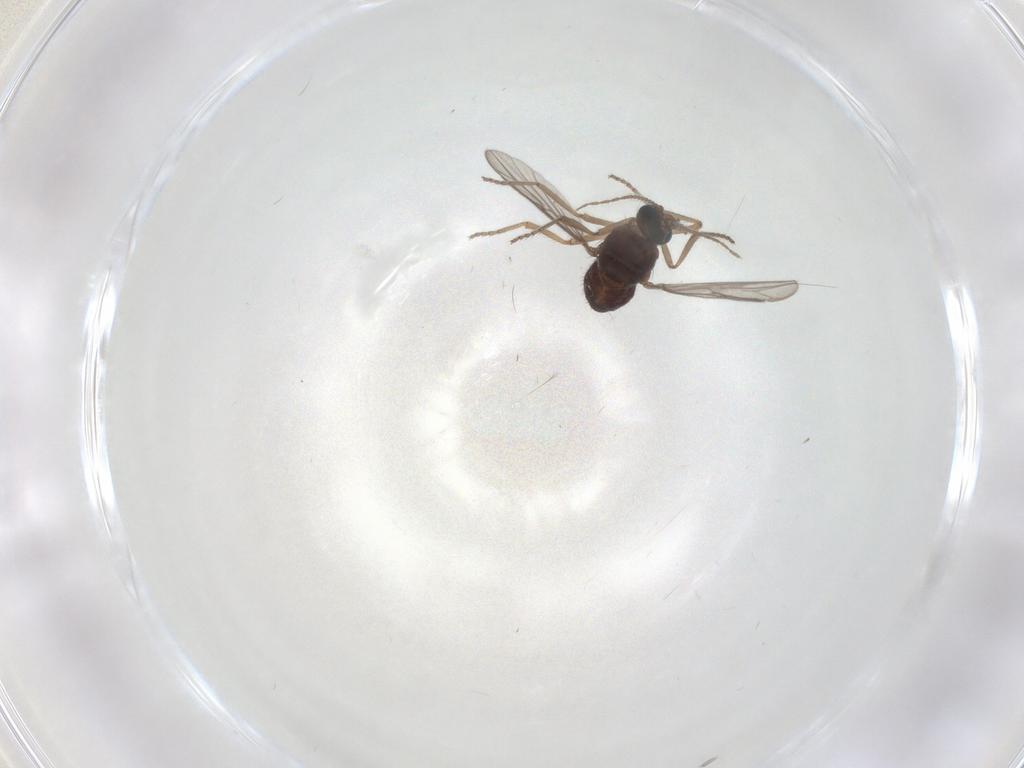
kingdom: Animalia
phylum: Arthropoda
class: Insecta
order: Diptera
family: Ceratopogonidae
